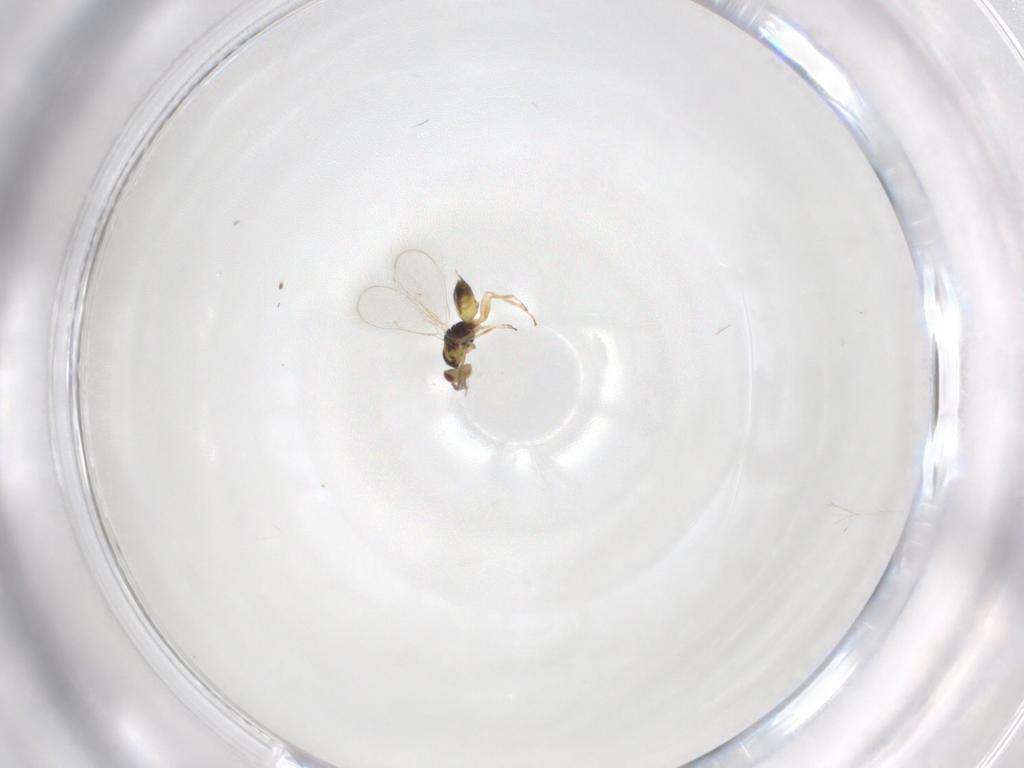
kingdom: Animalia
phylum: Arthropoda
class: Insecta
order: Hymenoptera
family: Eulophidae
